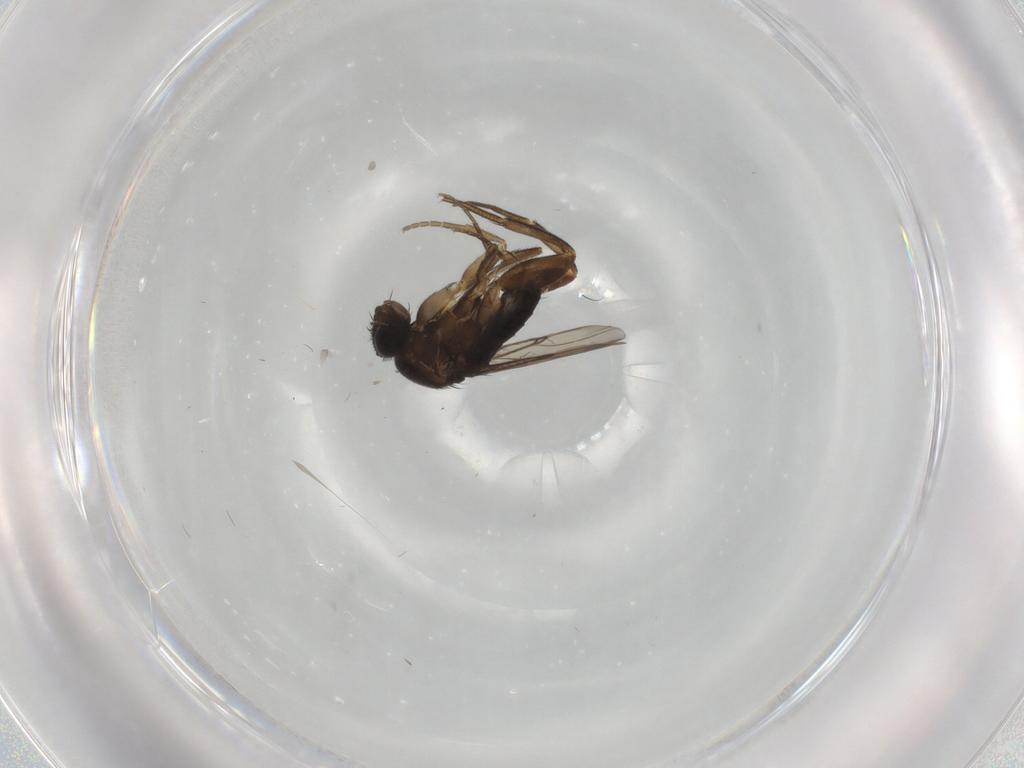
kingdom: Animalia
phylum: Arthropoda
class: Insecta
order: Diptera
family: Phoridae
